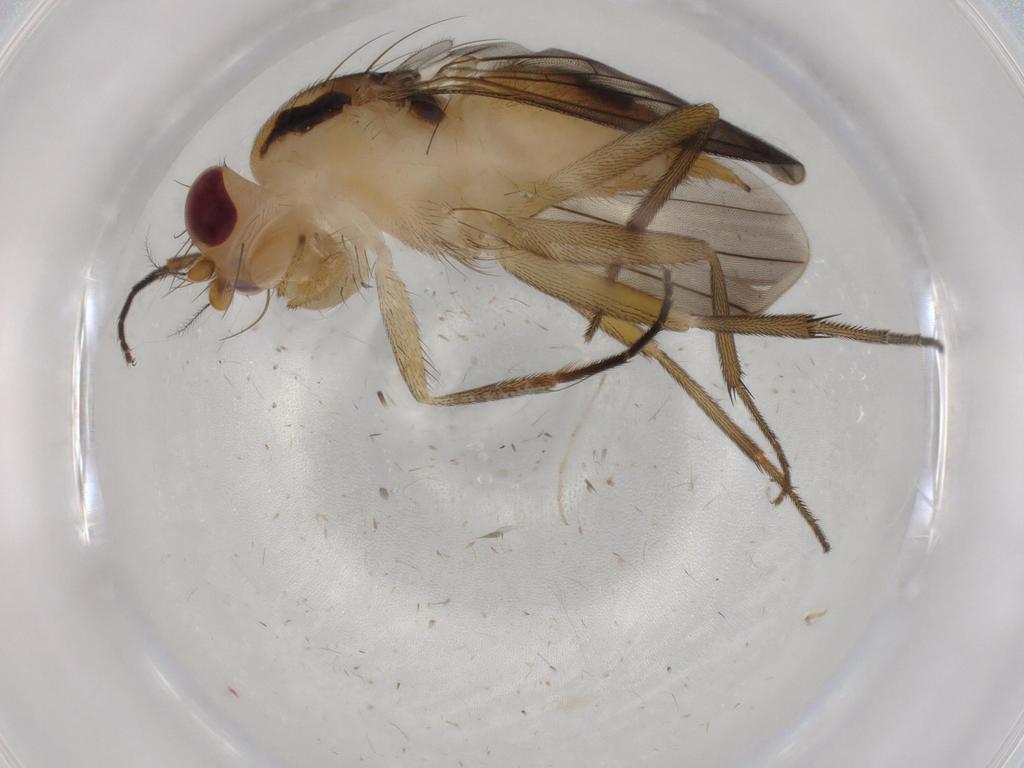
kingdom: Animalia
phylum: Arthropoda
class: Insecta
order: Diptera
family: Clusiidae
